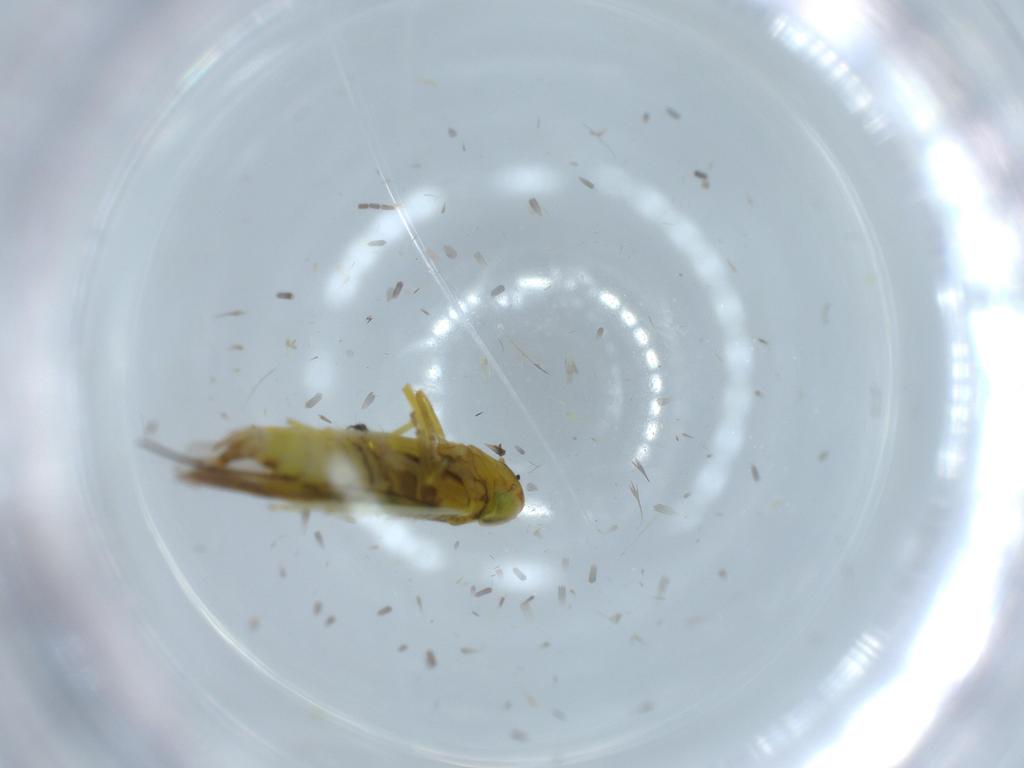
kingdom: Animalia
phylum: Arthropoda
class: Insecta
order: Hemiptera
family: Cicadellidae
